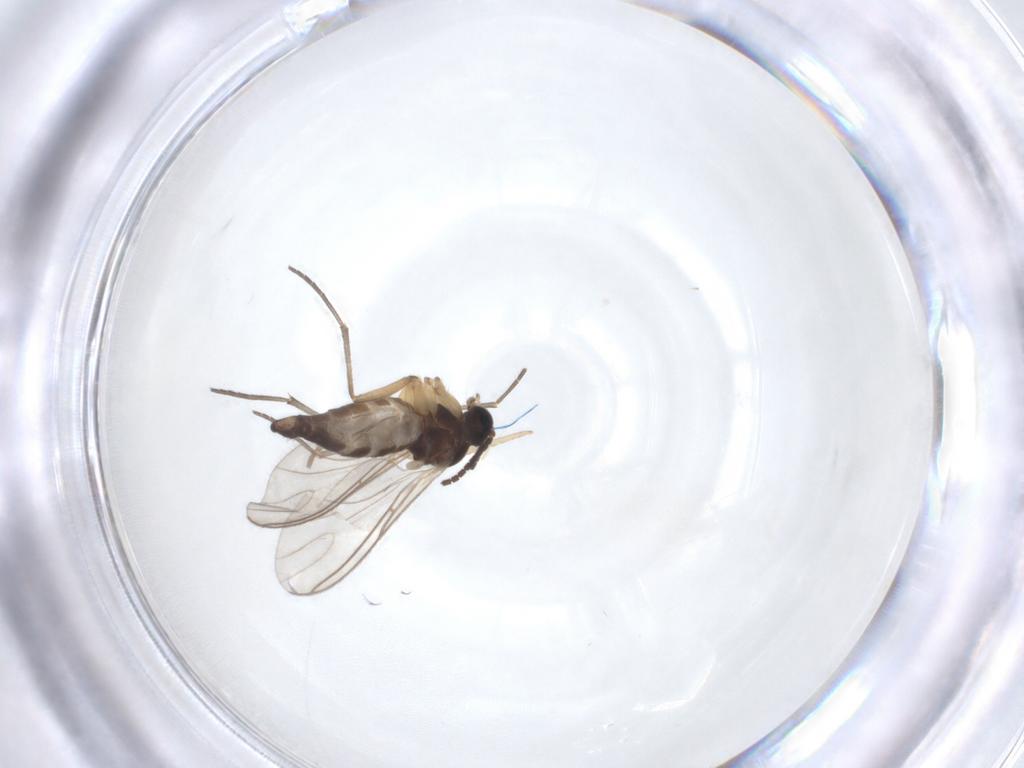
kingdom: Animalia
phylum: Arthropoda
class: Insecta
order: Diptera
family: Sciaridae
